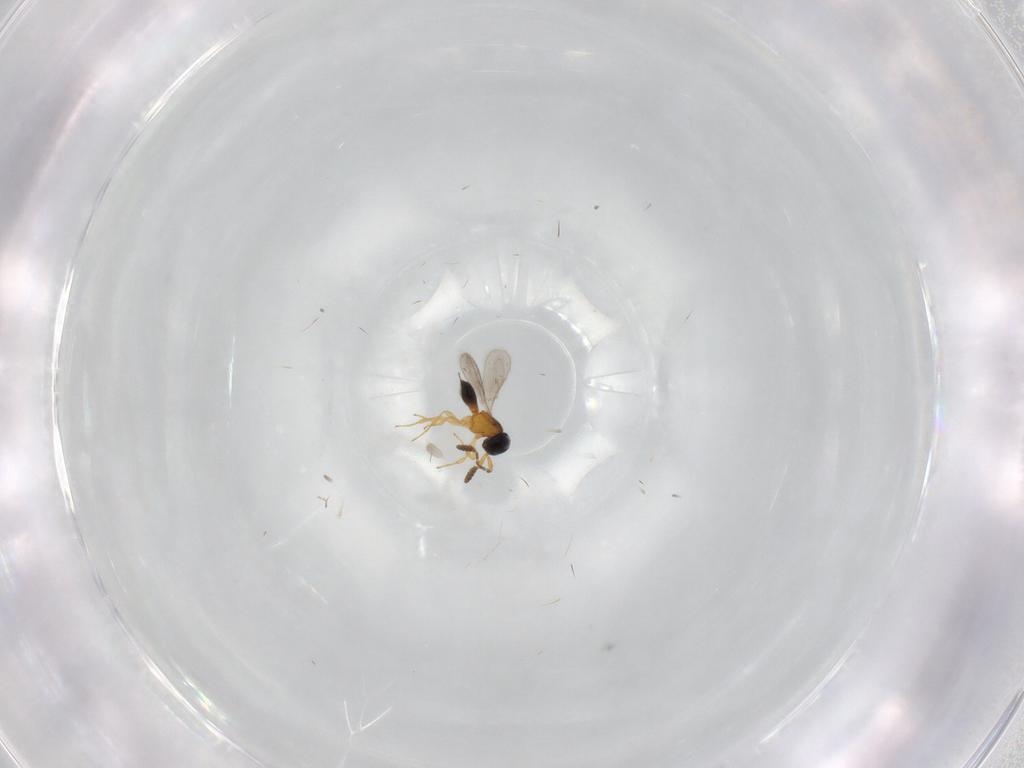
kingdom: Animalia
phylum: Arthropoda
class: Insecta
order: Hymenoptera
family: Scelionidae
